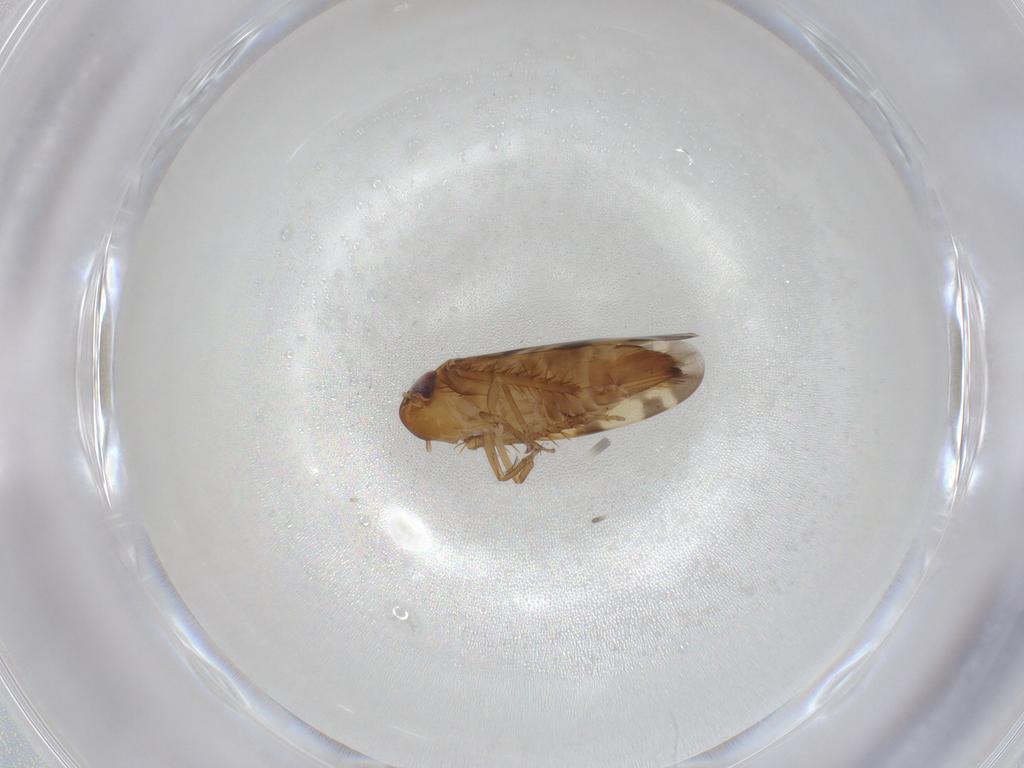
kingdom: Animalia
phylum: Arthropoda
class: Insecta
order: Hemiptera
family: Cicadellidae
